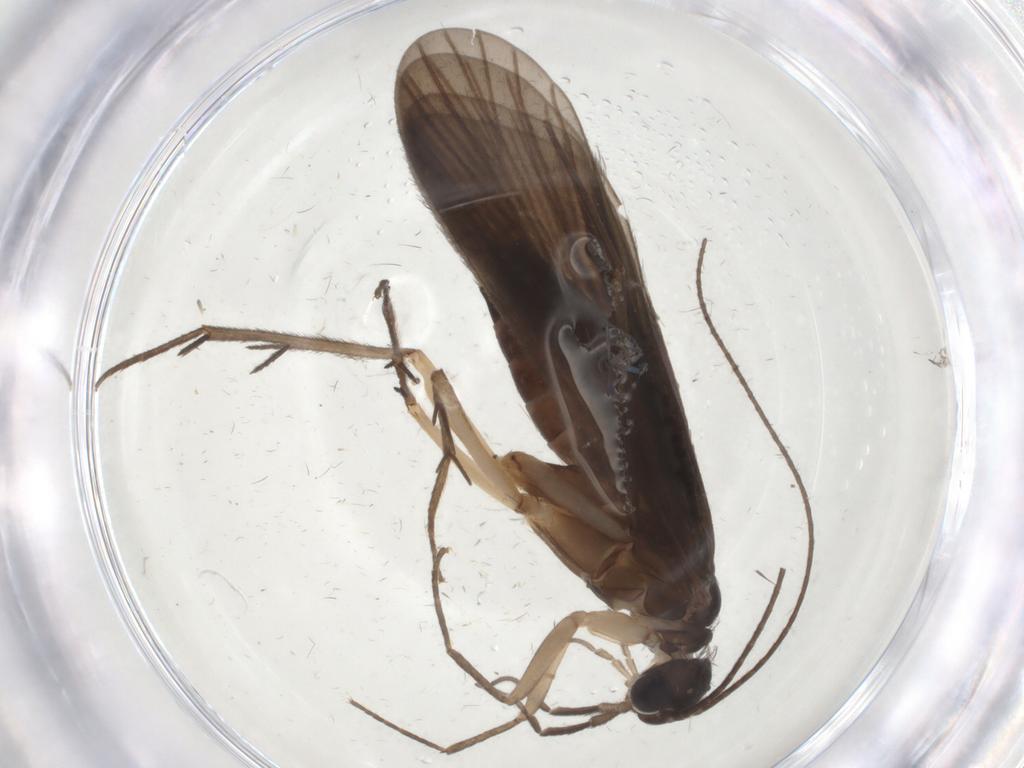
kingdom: Animalia
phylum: Arthropoda
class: Insecta
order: Trichoptera
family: Philopotamidae
